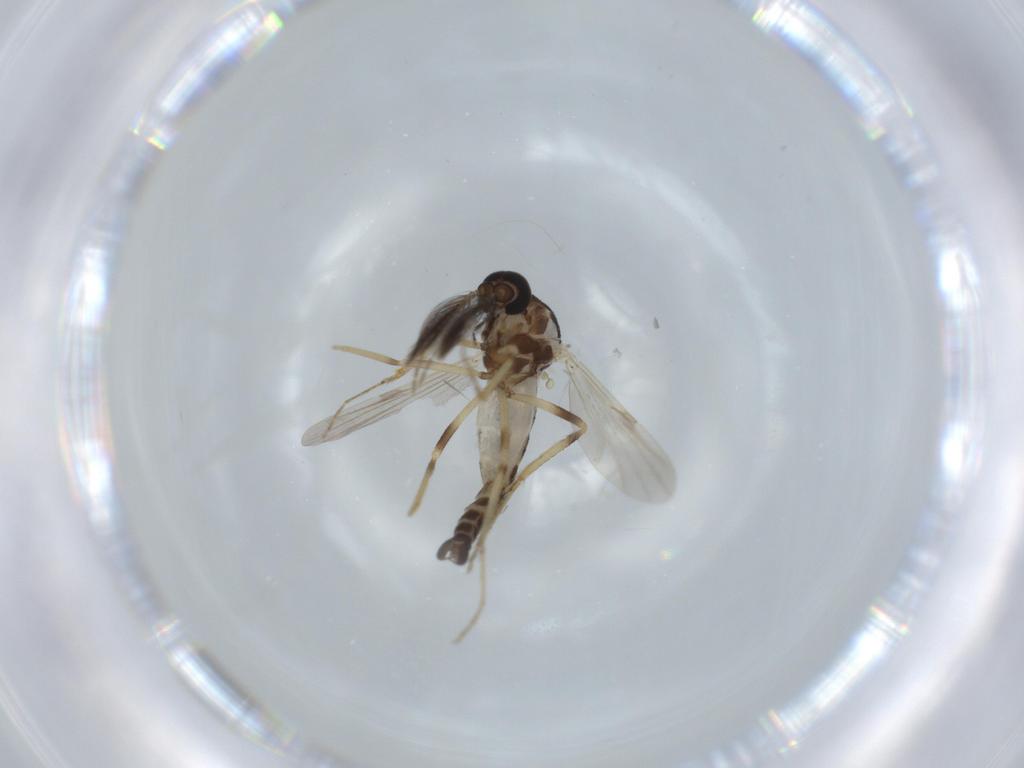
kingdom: Animalia
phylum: Arthropoda
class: Insecta
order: Diptera
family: Sciaridae
